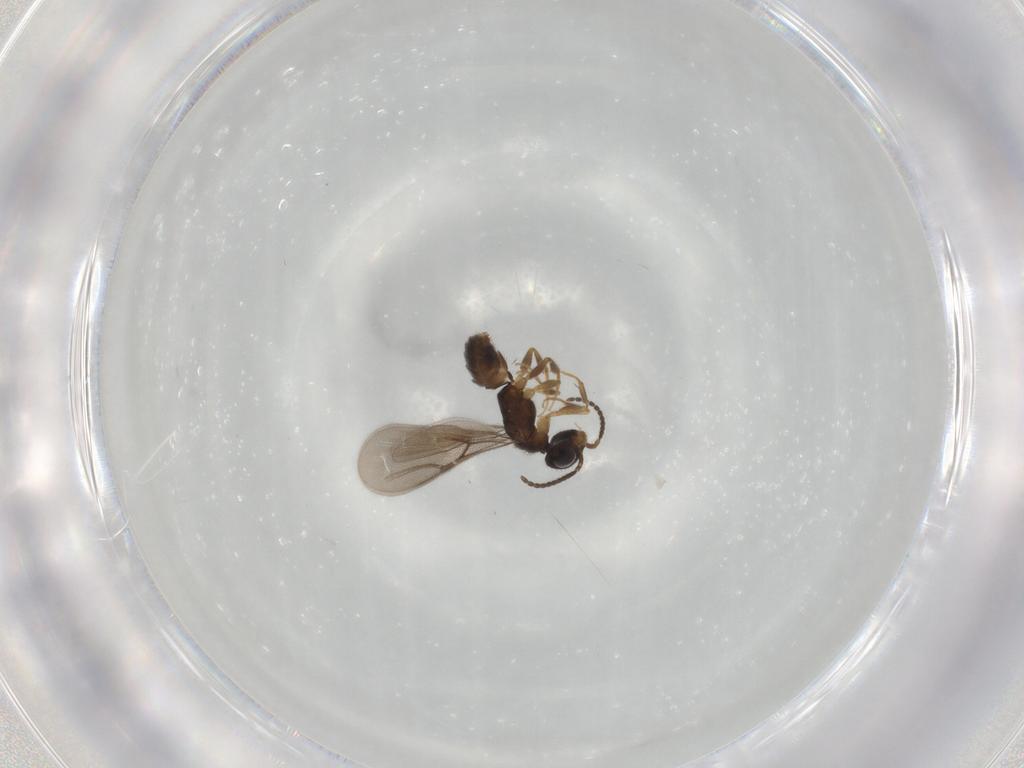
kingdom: Animalia
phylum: Arthropoda
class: Insecta
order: Hymenoptera
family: Bethylidae
